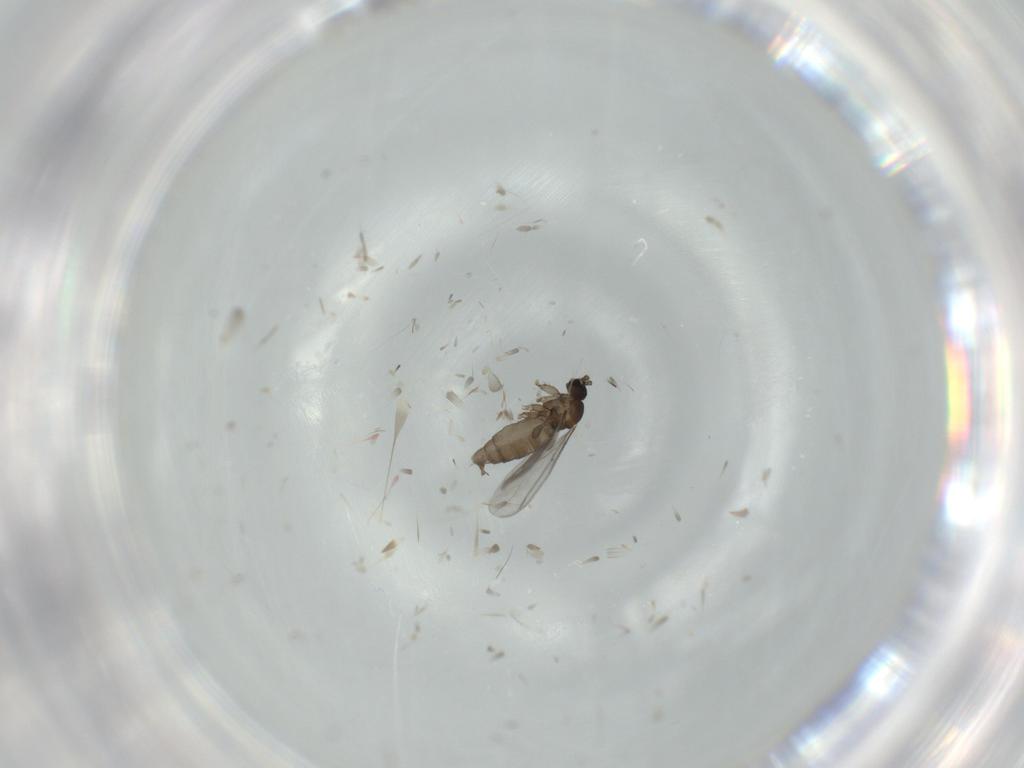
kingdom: Animalia
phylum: Arthropoda
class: Insecta
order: Diptera
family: Sciaridae
